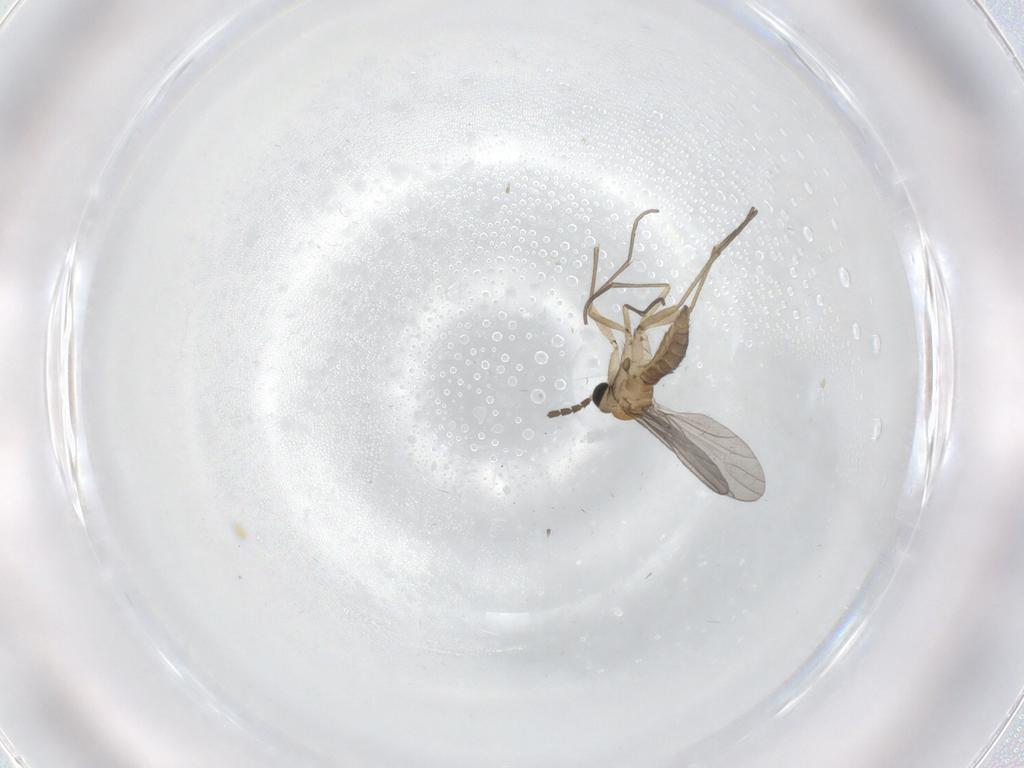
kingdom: Animalia
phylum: Arthropoda
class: Insecta
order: Diptera
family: Sciaridae
